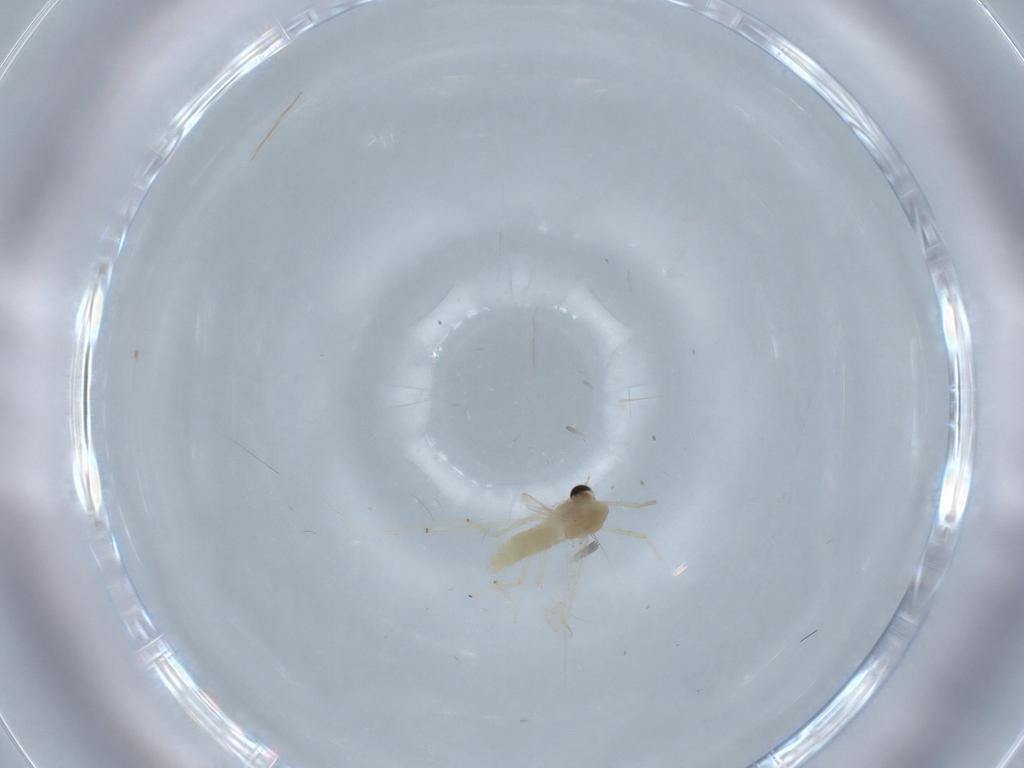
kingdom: Animalia
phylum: Arthropoda
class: Insecta
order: Diptera
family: Chironomidae
